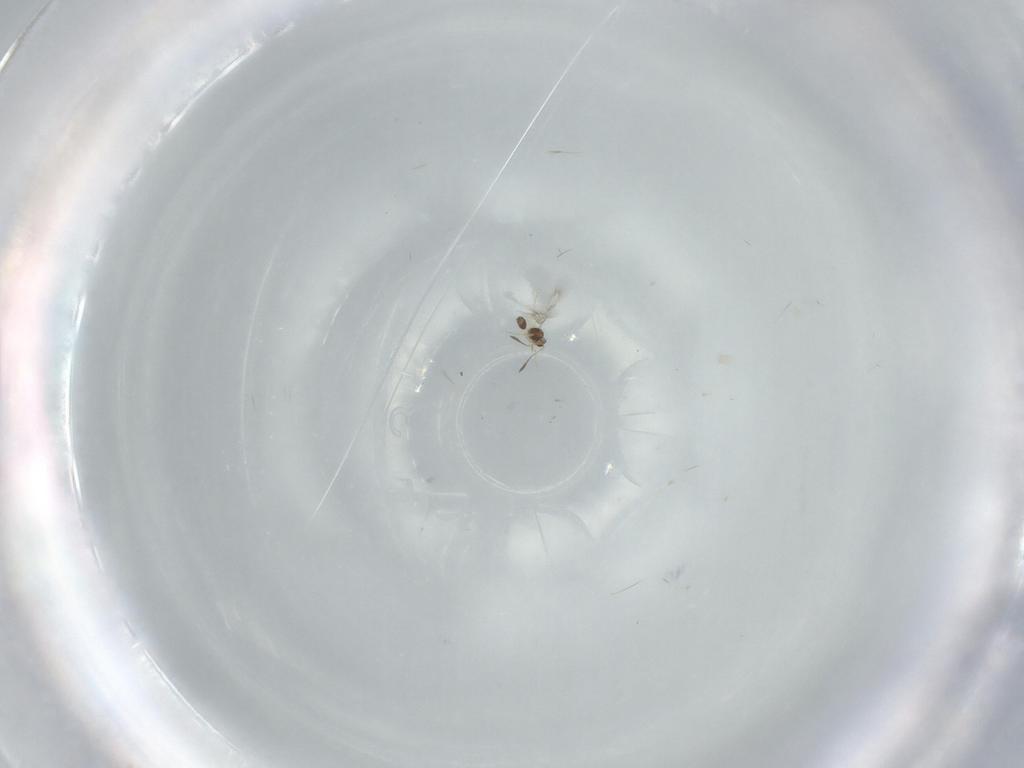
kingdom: Animalia
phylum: Arthropoda
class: Insecta
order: Hymenoptera
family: Mymarommatidae
